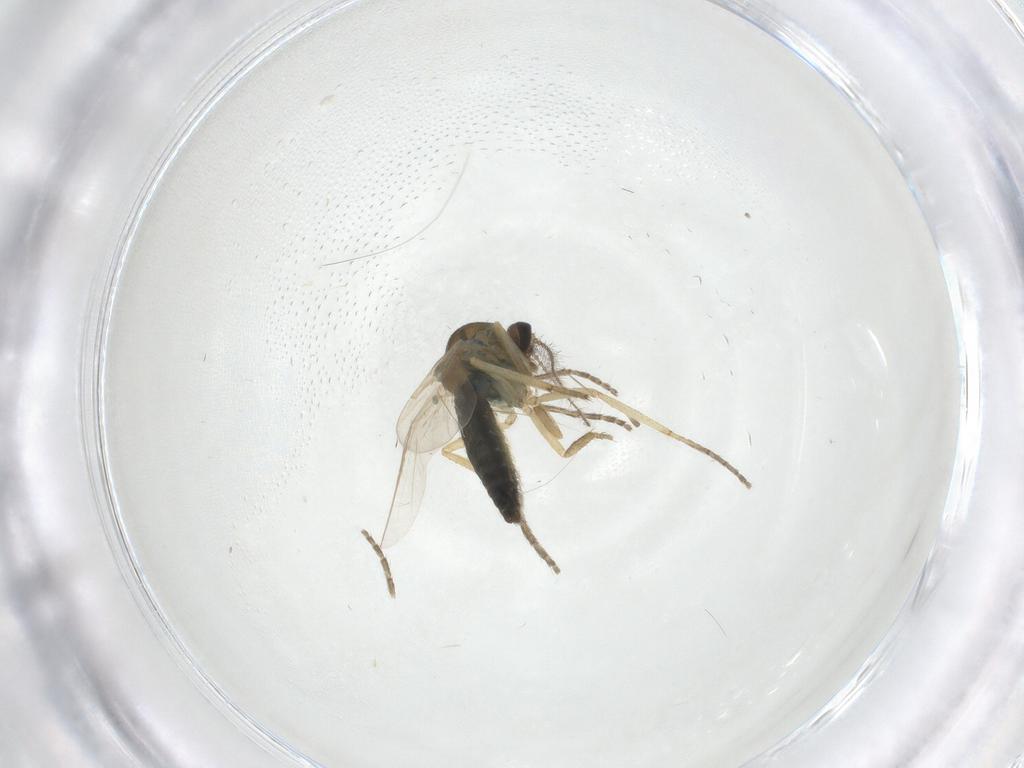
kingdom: Animalia
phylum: Arthropoda
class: Insecta
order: Diptera
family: Ceratopogonidae
